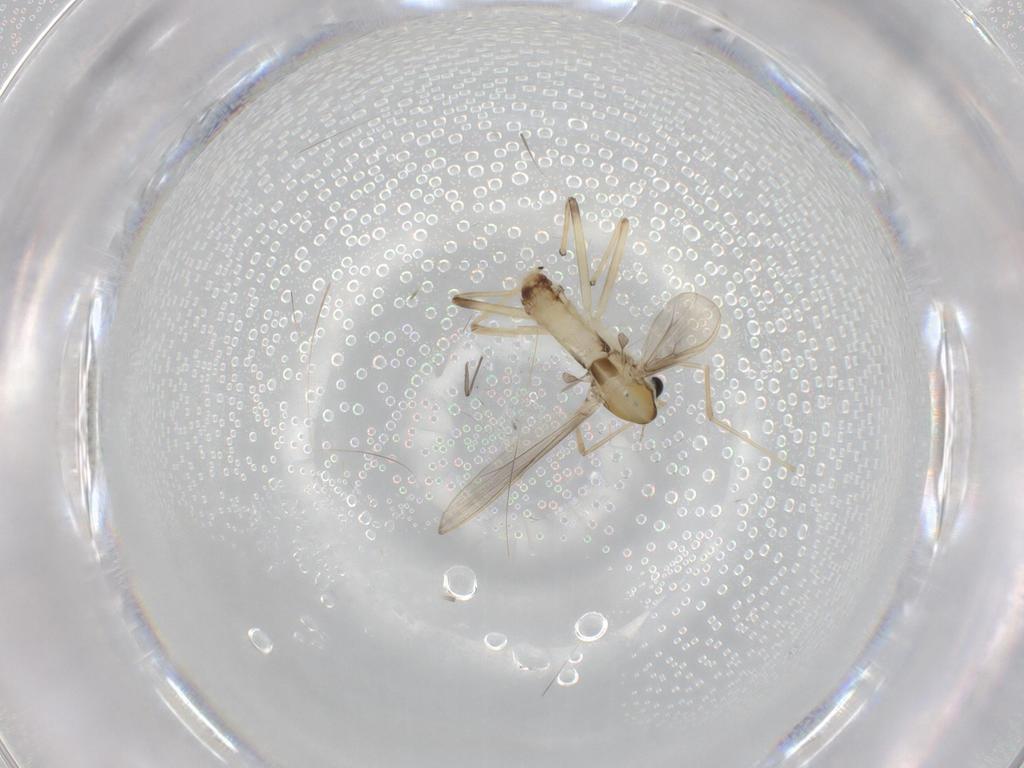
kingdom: Animalia
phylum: Arthropoda
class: Insecta
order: Diptera
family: Chironomidae
